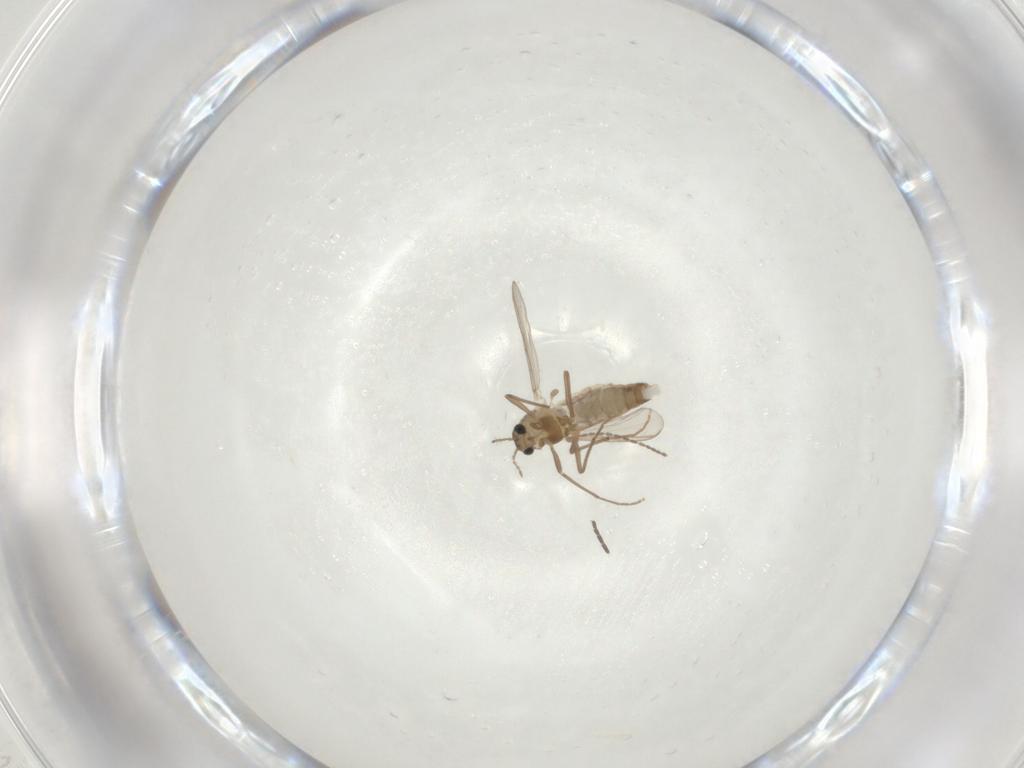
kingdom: Animalia
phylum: Arthropoda
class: Insecta
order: Diptera
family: Chironomidae
